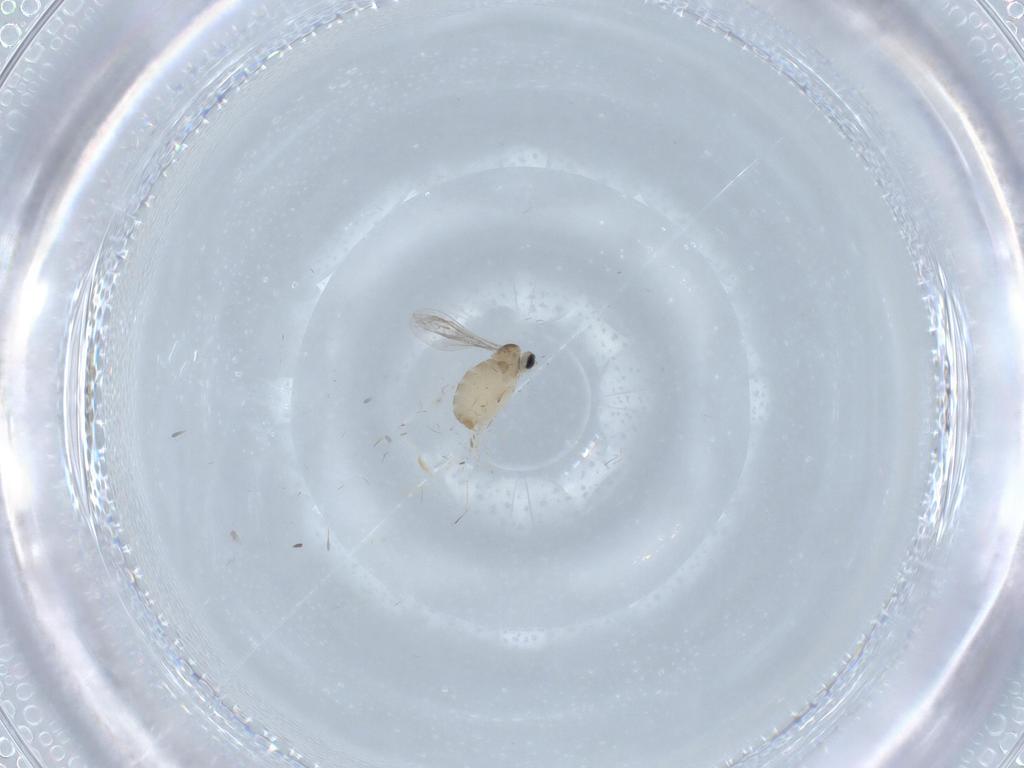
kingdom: Animalia
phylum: Arthropoda
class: Insecta
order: Diptera
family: Cecidomyiidae
